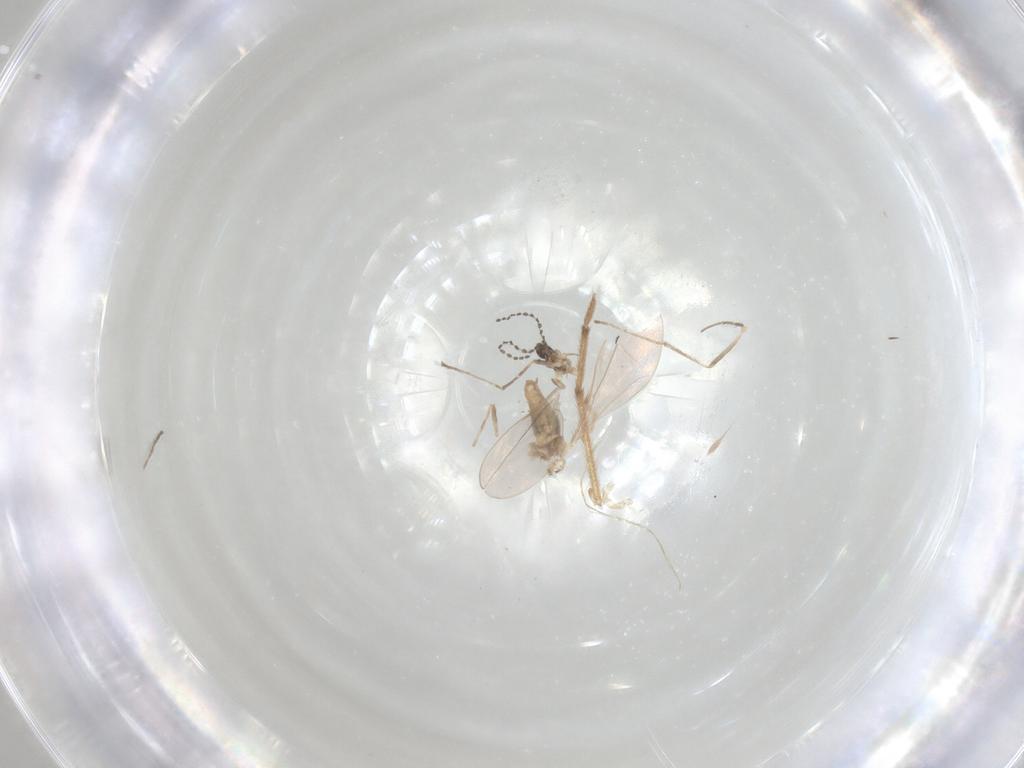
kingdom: Animalia
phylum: Arthropoda
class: Insecta
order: Diptera
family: Cecidomyiidae
